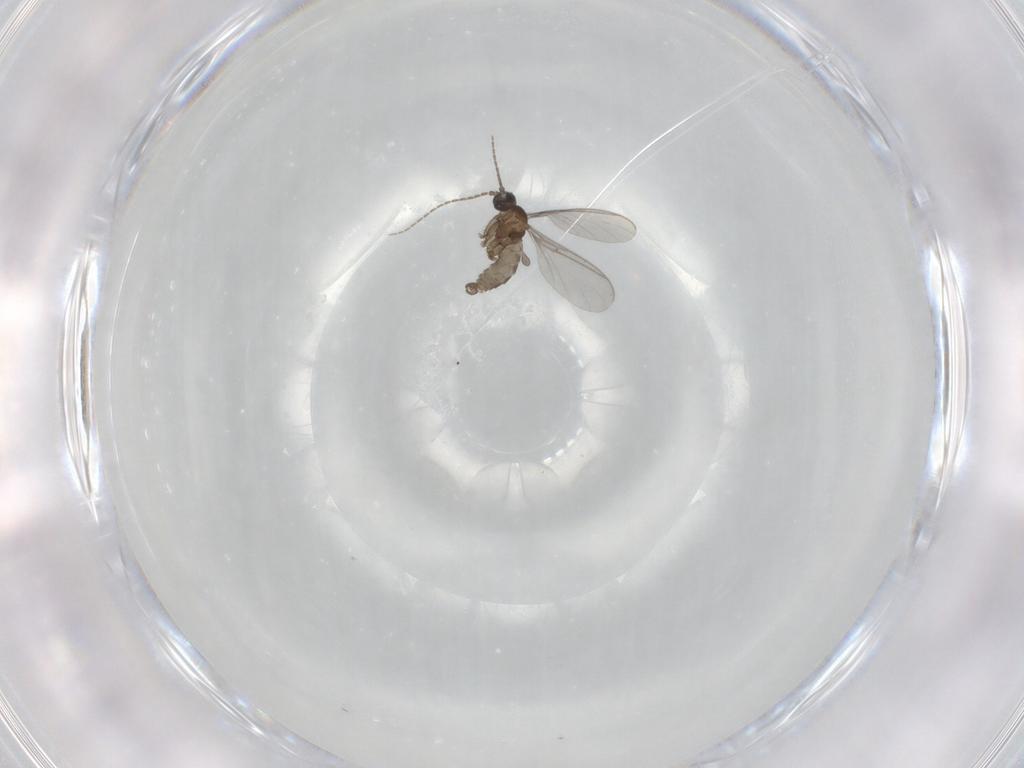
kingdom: Animalia
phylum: Arthropoda
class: Insecta
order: Diptera
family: Sciaridae
